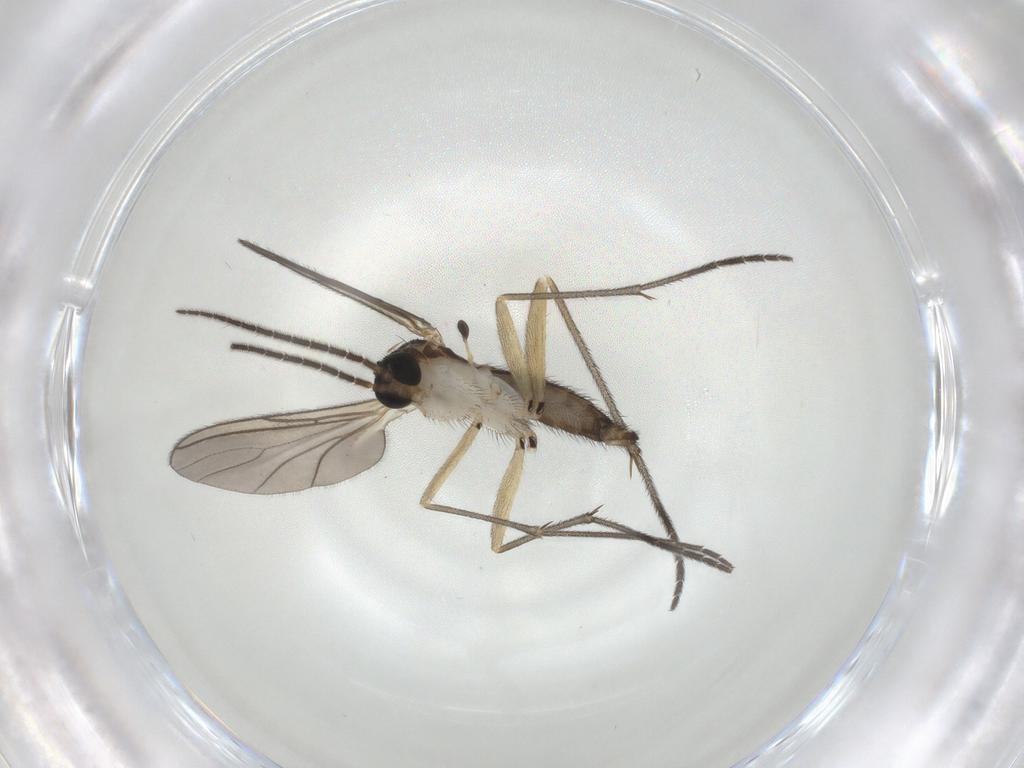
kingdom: Animalia
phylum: Arthropoda
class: Insecta
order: Diptera
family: Sciaridae
